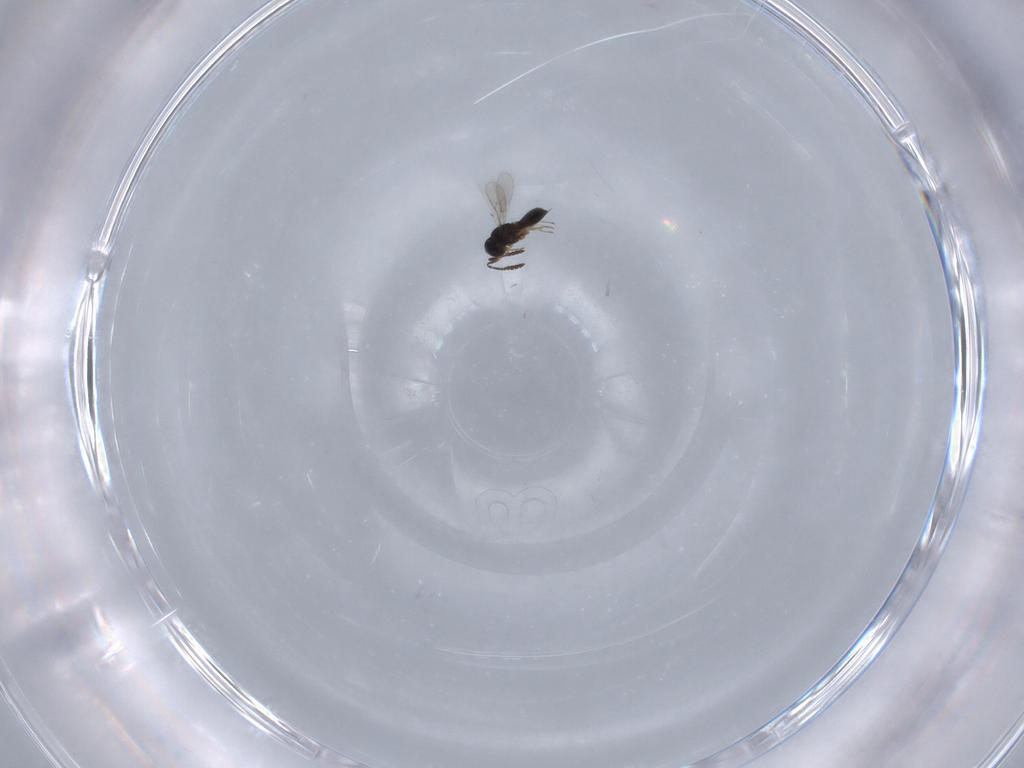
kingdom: Animalia
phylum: Arthropoda
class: Insecta
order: Hymenoptera
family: Scelionidae
